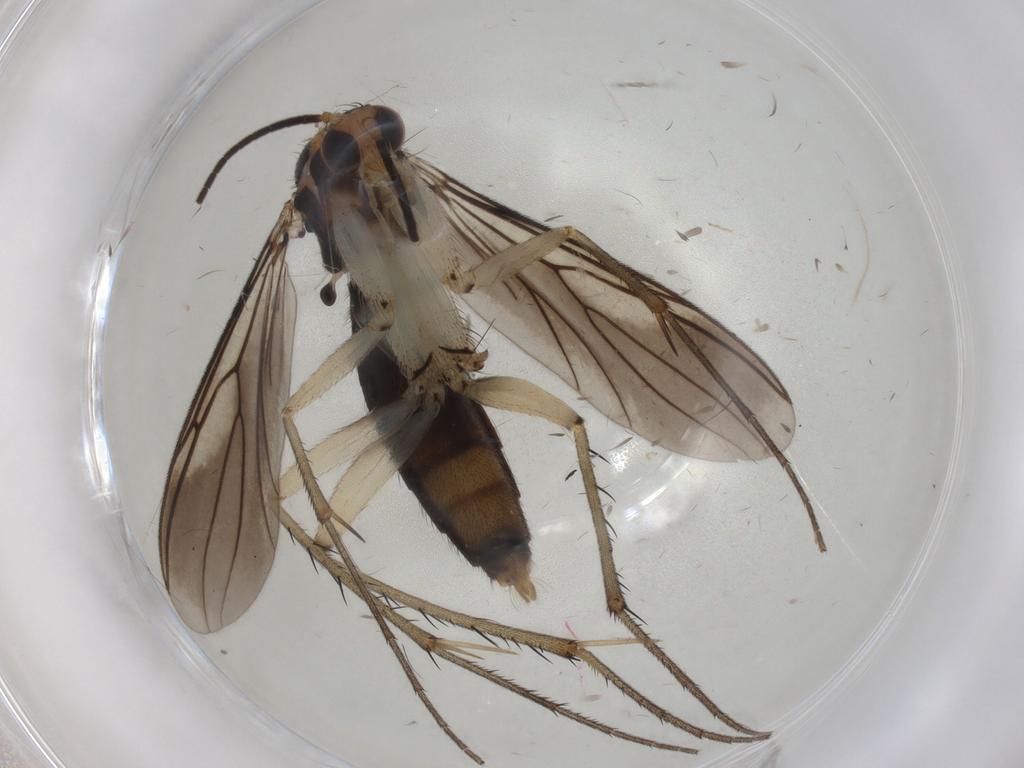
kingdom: Animalia
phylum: Arthropoda
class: Insecta
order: Diptera
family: Mycetophilidae
